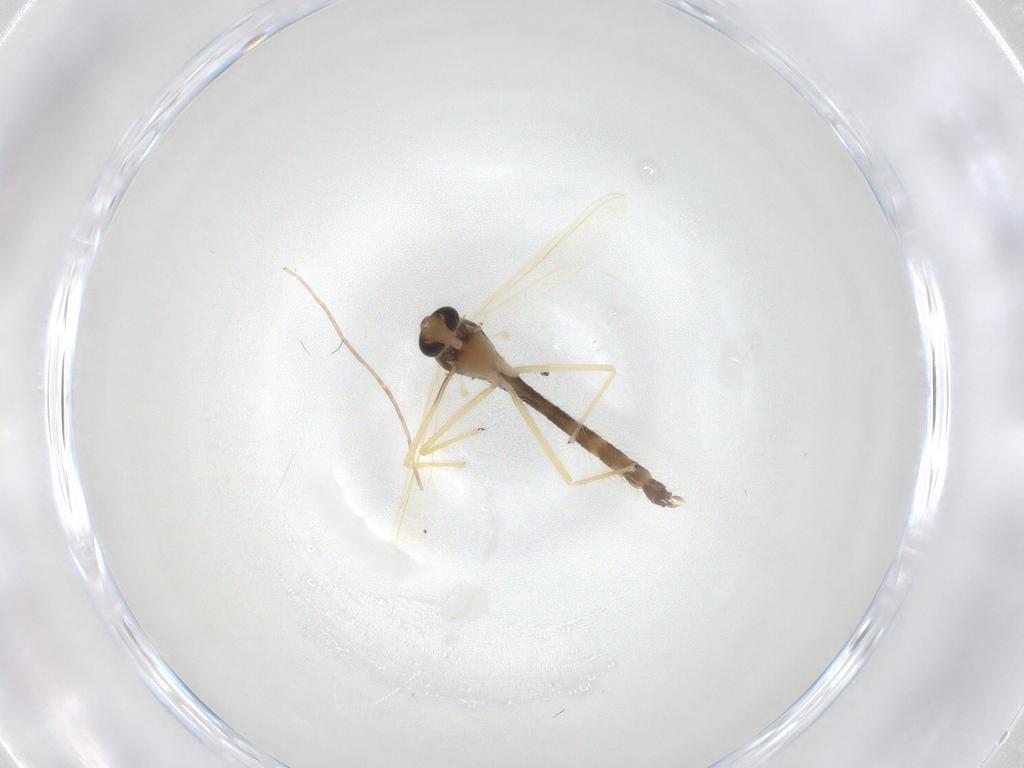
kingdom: Animalia
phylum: Arthropoda
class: Insecta
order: Diptera
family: Chironomidae
